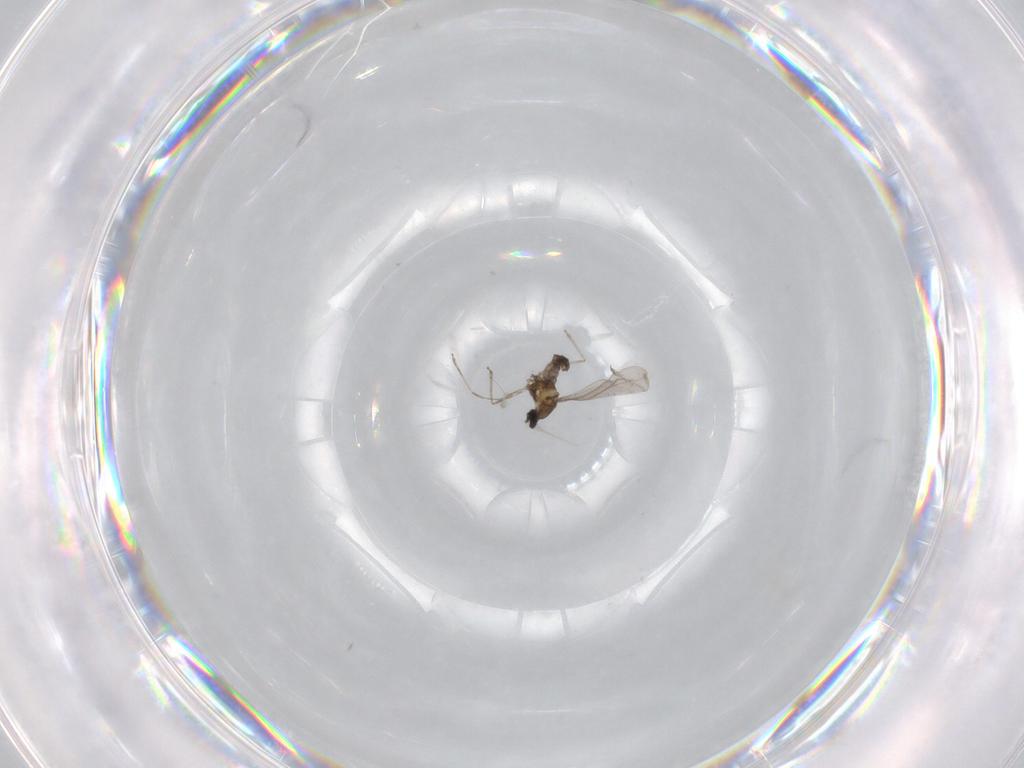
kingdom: Animalia
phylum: Arthropoda
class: Insecta
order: Diptera
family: Cecidomyiidae
